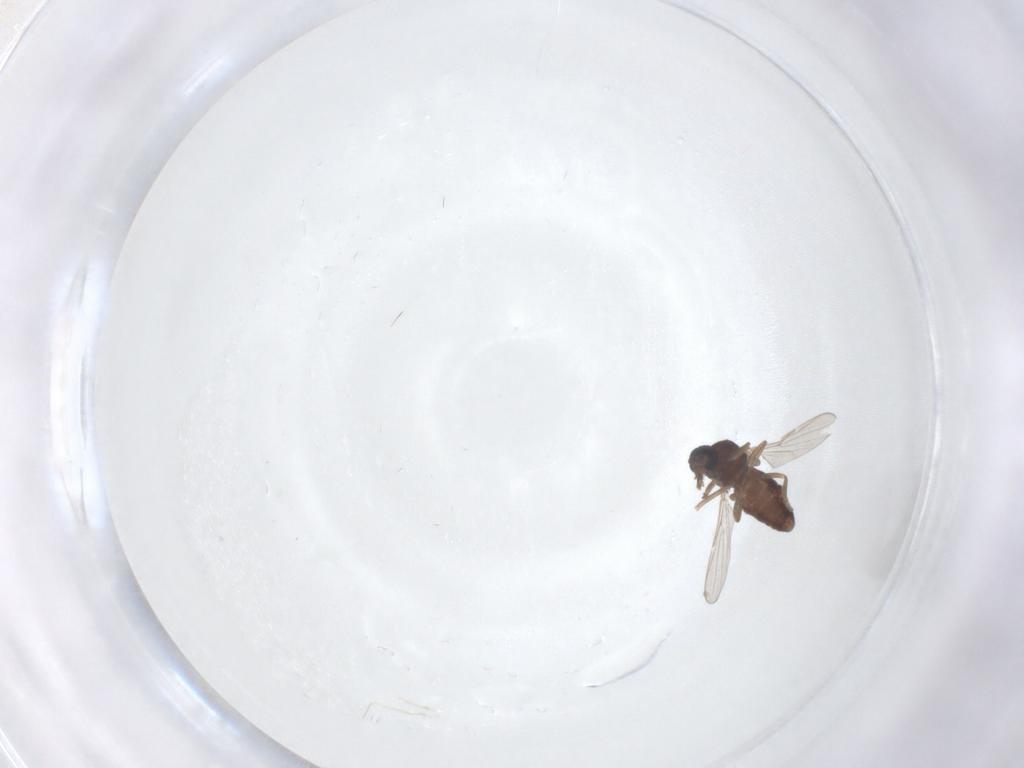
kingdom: Animalia
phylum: Arthropoda
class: Insecta
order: Diptera
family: Ceratopogonidae
